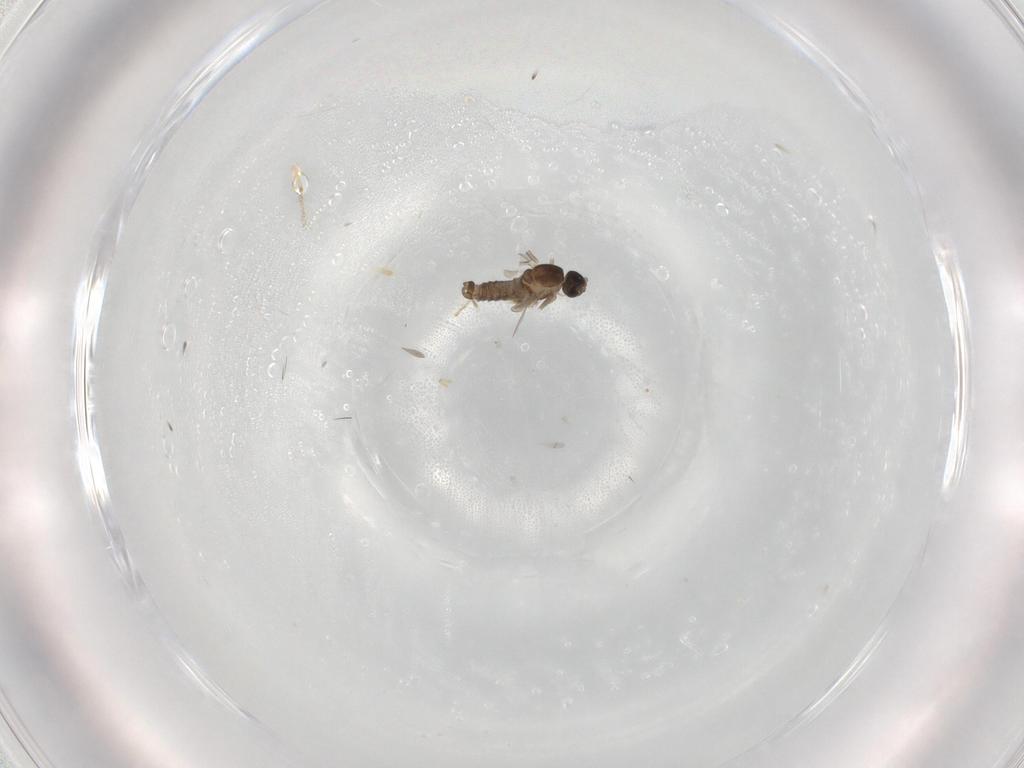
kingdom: Animalia
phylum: Arthropoda
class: Insecta
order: Diptera
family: Cecidomyiidae
